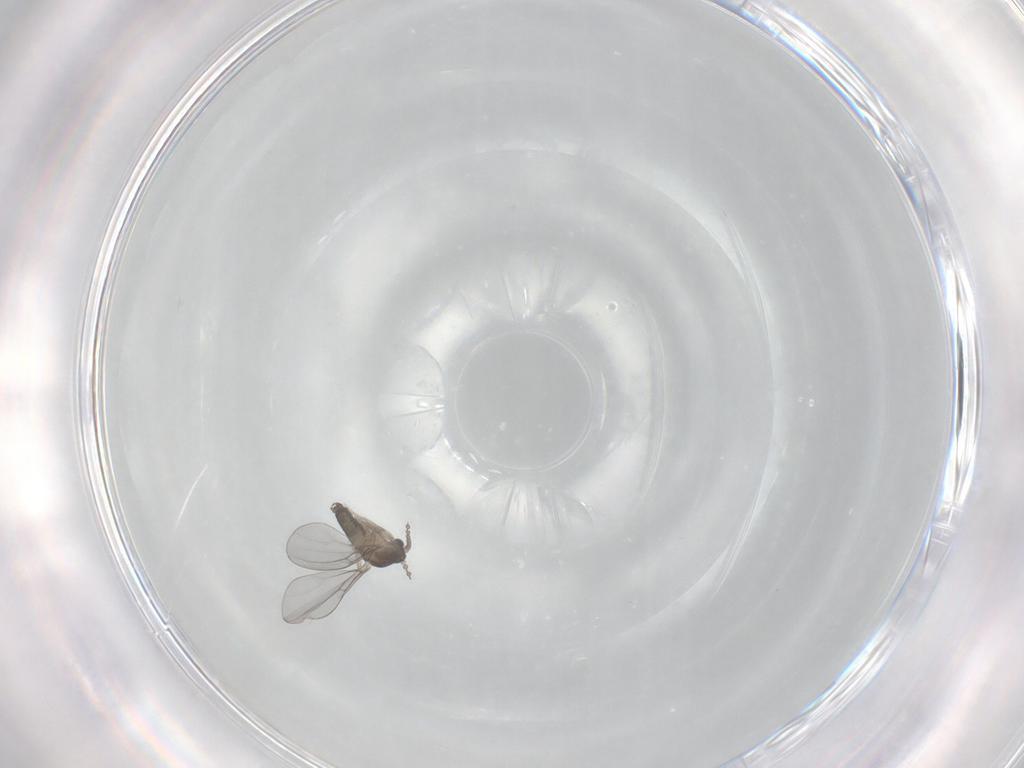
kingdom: Animalia
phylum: Arthropoda
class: Insecta
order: Diptera
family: Cecidomyiidae
